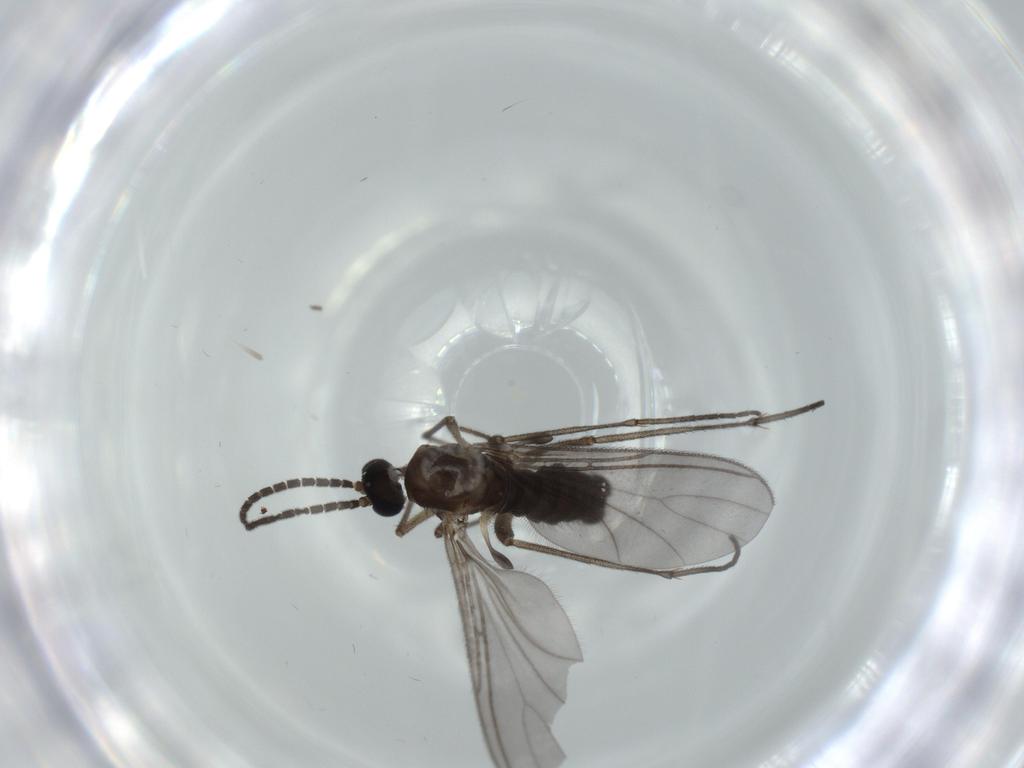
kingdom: Animalia
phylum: Arthropoda
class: Insecta
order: Diptera
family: Sciaridae
